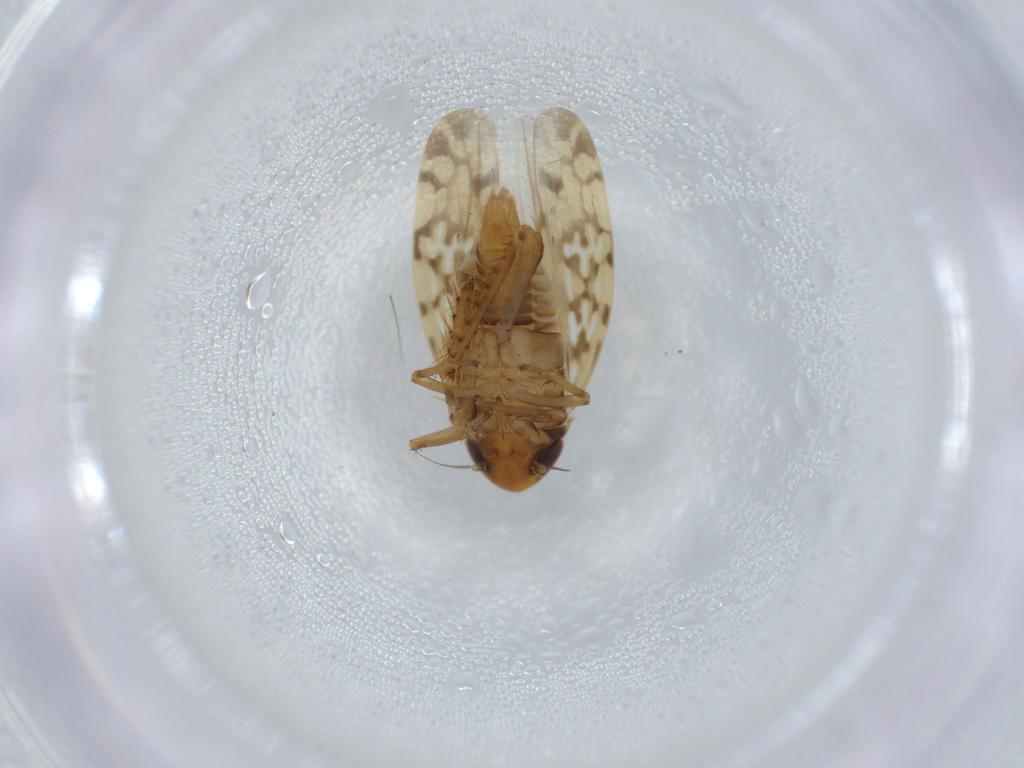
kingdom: Animalia
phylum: Arthropoda
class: Insecta
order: Hemiptera
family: Cicadellidae
